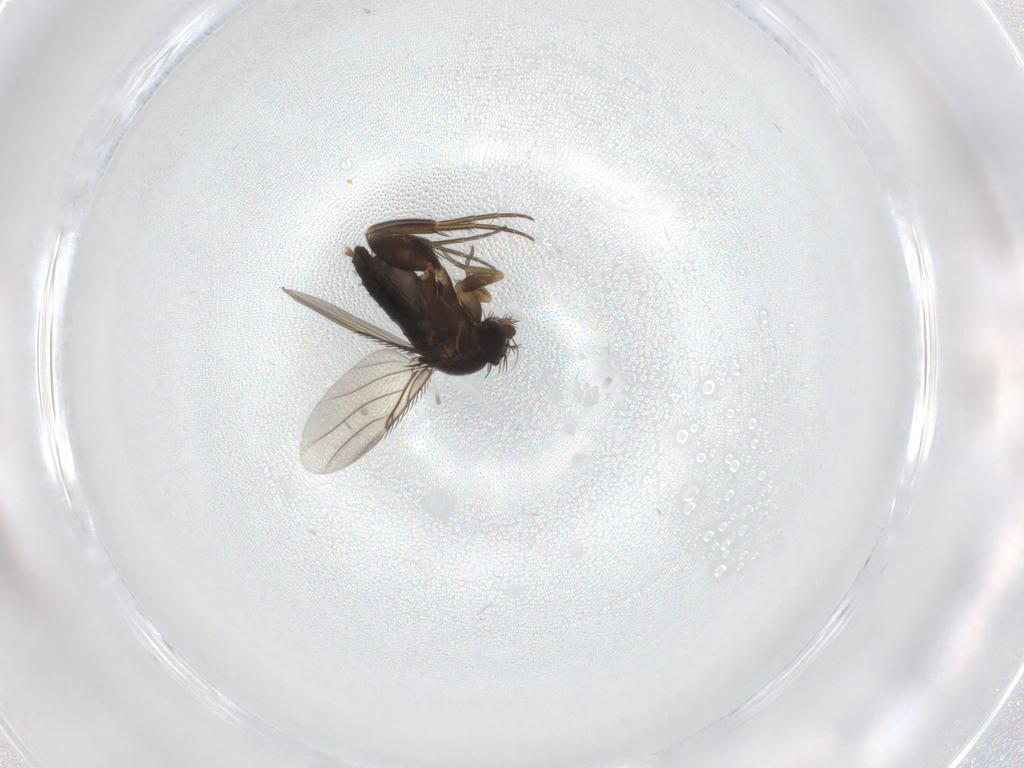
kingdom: Animalia
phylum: Arthropoda
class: Insecta
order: Diptera
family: Phoridae
